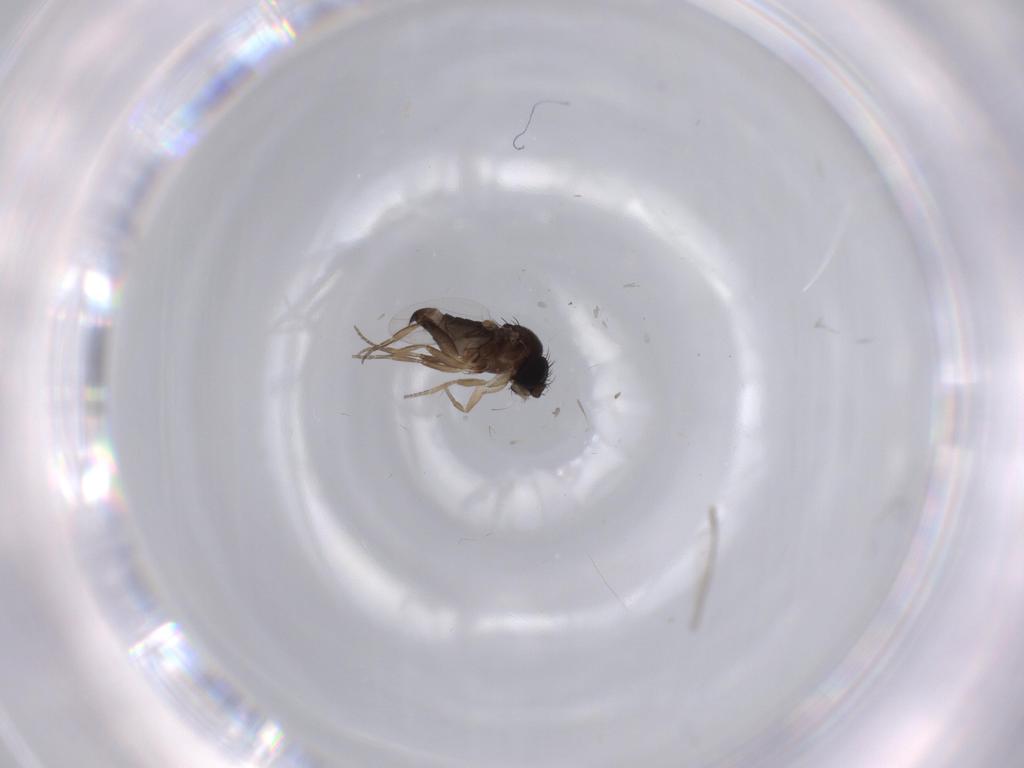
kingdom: Animalia
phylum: Arthropoda
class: Insecta
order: Diptera
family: Phoridae
